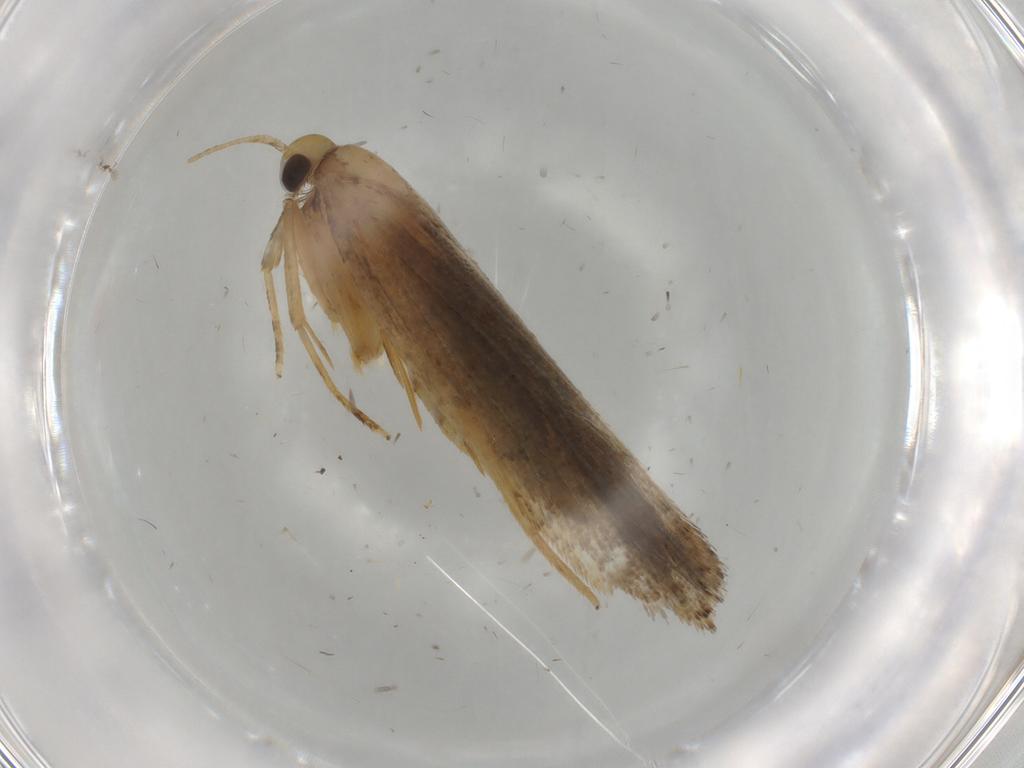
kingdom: Animalia
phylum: Arthropoda
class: Insecta
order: Lepidoptera
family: Autostichidae
